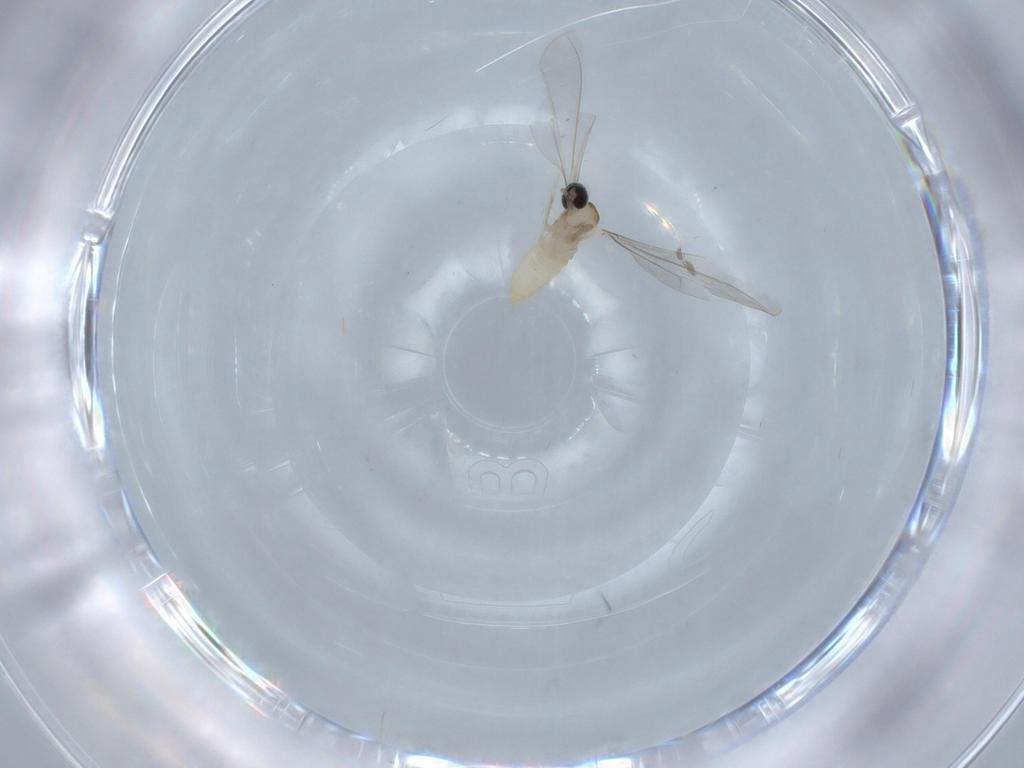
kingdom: Animalia
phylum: Arthropoda
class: Insecta
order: Diptera
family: Cecidomyiidae
